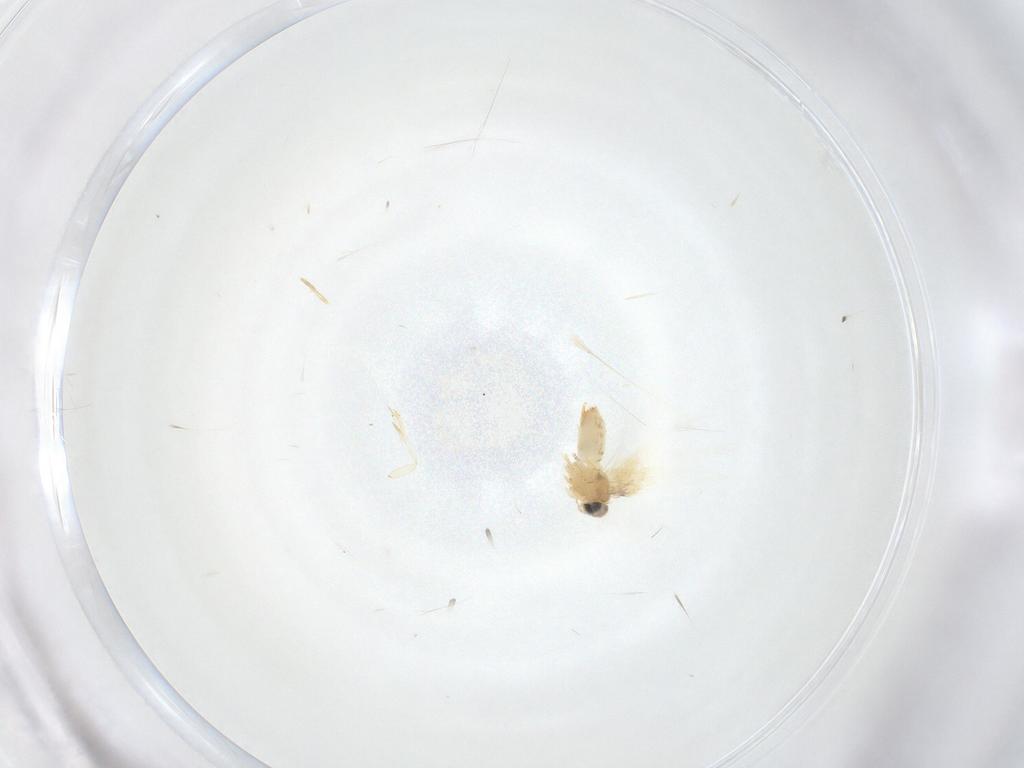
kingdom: Animalia
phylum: Arthropoda
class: Insecta
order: Lepidoptera
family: Crambidae
